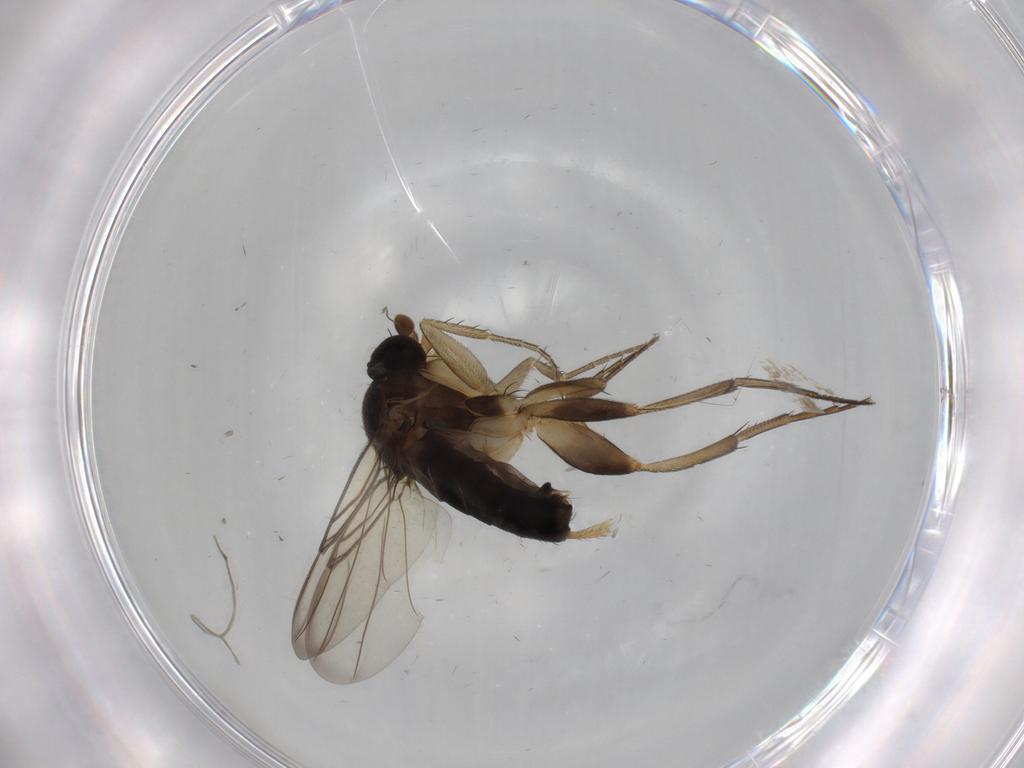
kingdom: Animalia
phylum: Arthropoda
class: Insecta
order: Diptera
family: Phoridae
